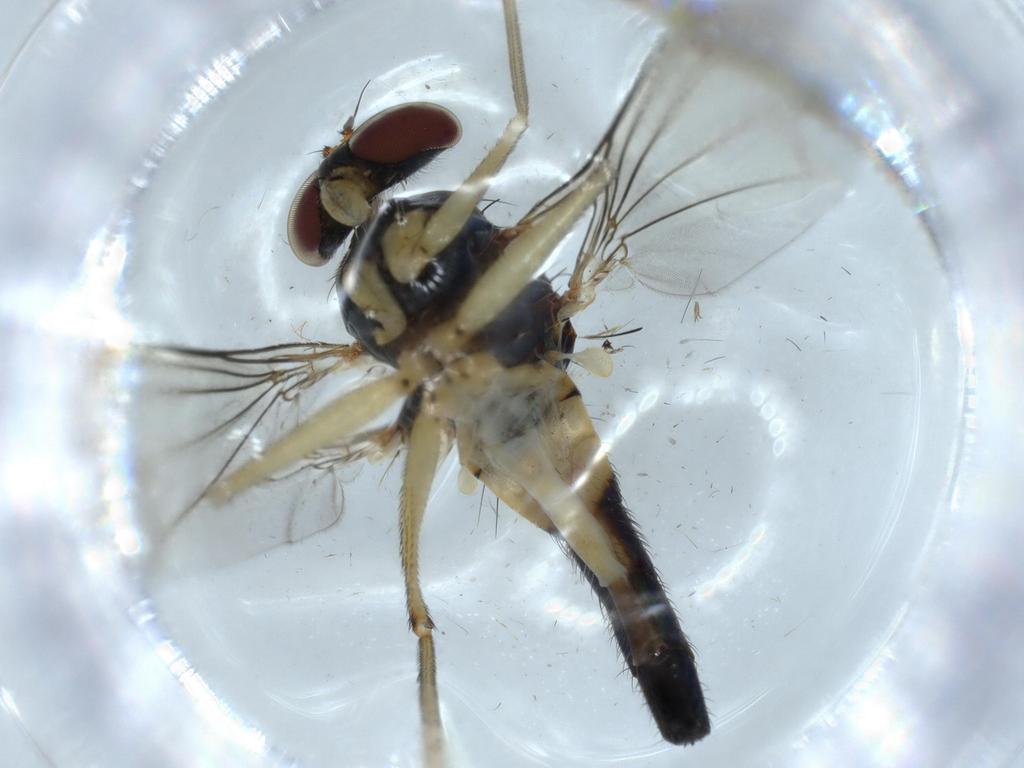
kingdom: Animalia
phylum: Arthropoda
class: Insecta
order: Diptera
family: Dolichopodidae
